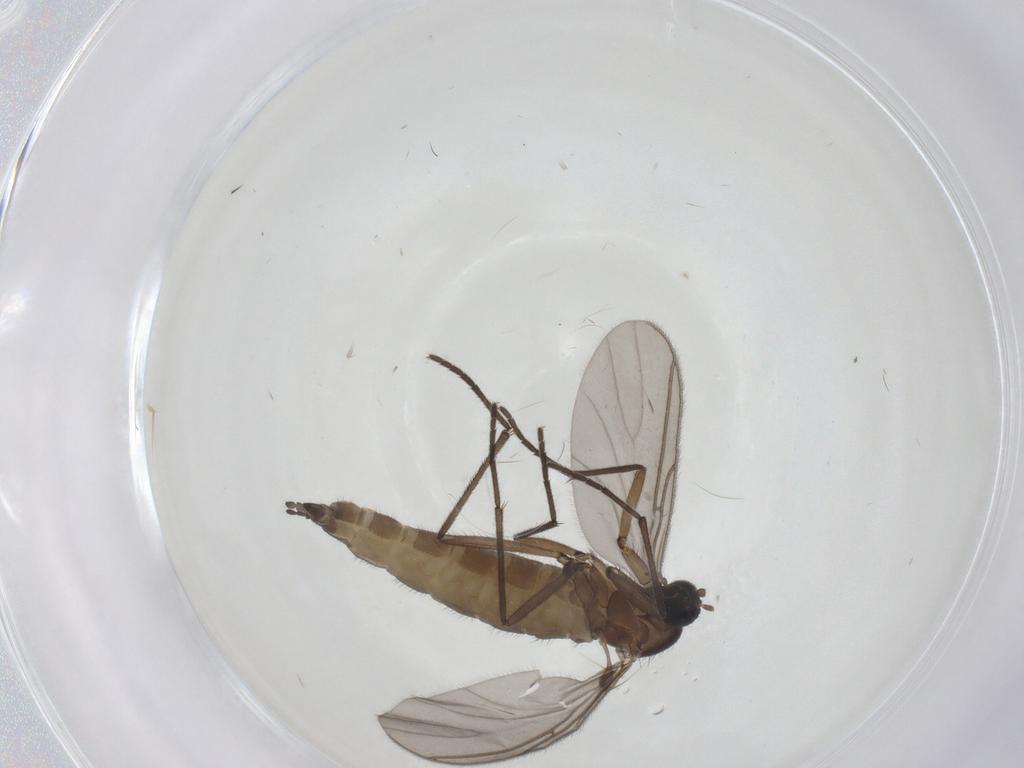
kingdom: Animalia
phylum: Arthropoda
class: Insecta
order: Diptera
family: Sciaridae
